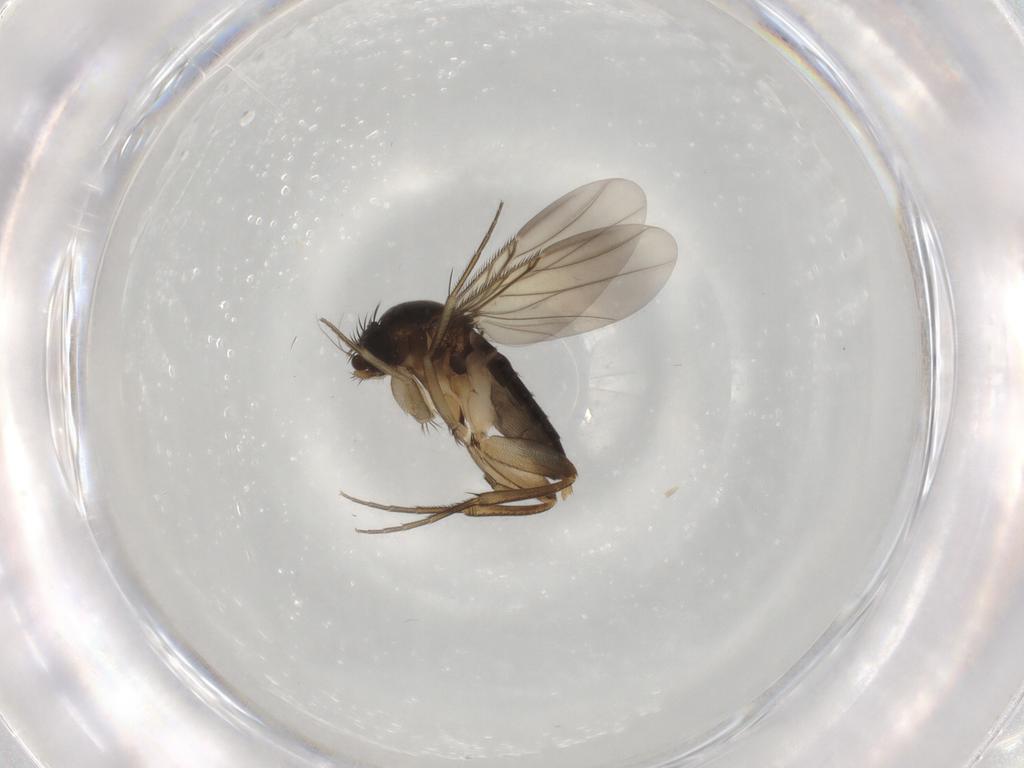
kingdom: Animalia
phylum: Arthropoda
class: Insecta
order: Diptera
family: Phoridae
